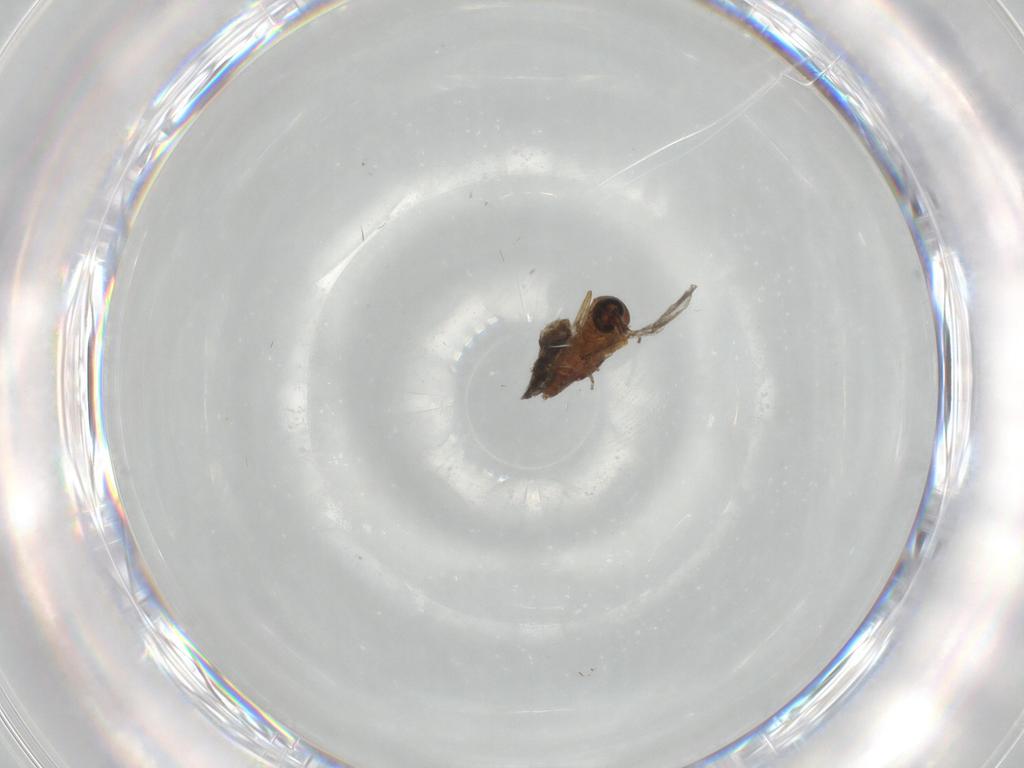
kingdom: Animalia
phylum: Arthropoda
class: Insecta
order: Diptera
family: Ceratopogonidae
